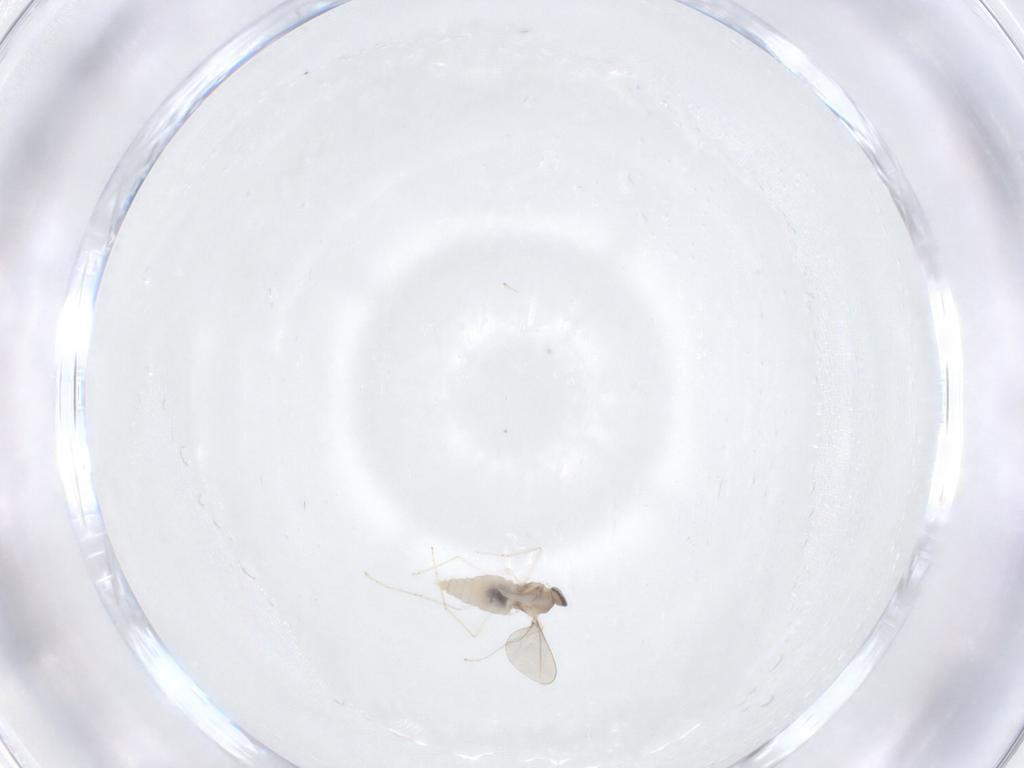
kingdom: Animalia
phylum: Arthropoda
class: Insecta
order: Diptera
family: Cecidomyiidae
